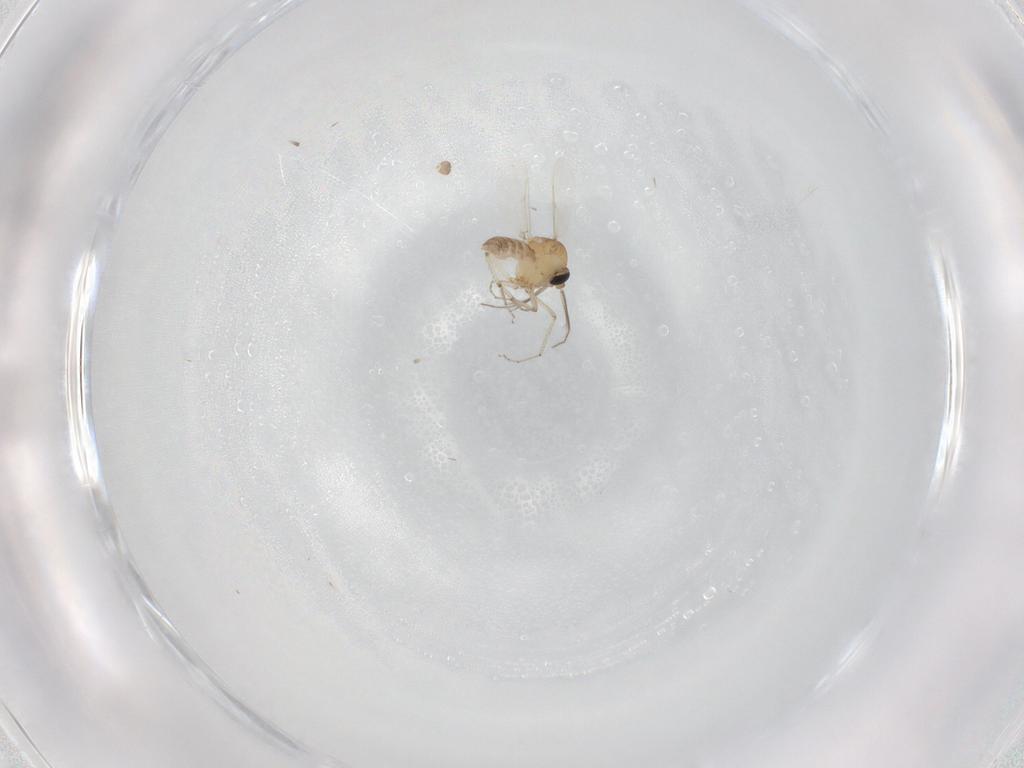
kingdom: Animalia
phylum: Arthropoda
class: Insecta
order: Diptera
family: Ceratopogonidae
